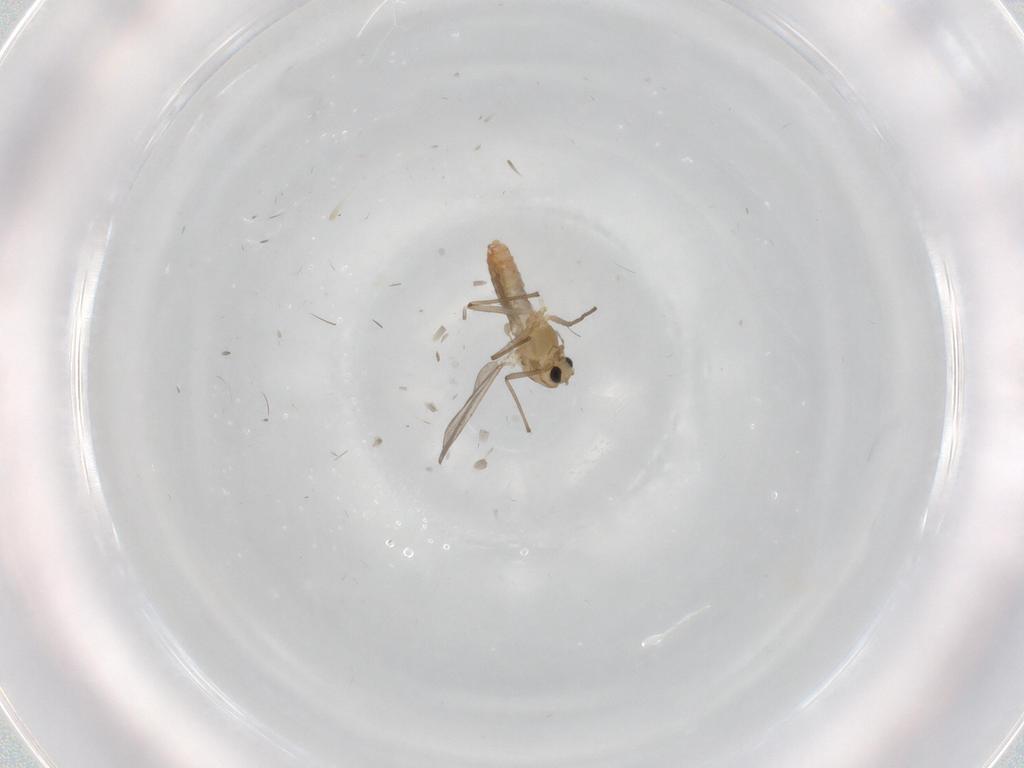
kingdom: Animalia
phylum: Arthropoda
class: Insecta
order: Diptera
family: Chironomidae
